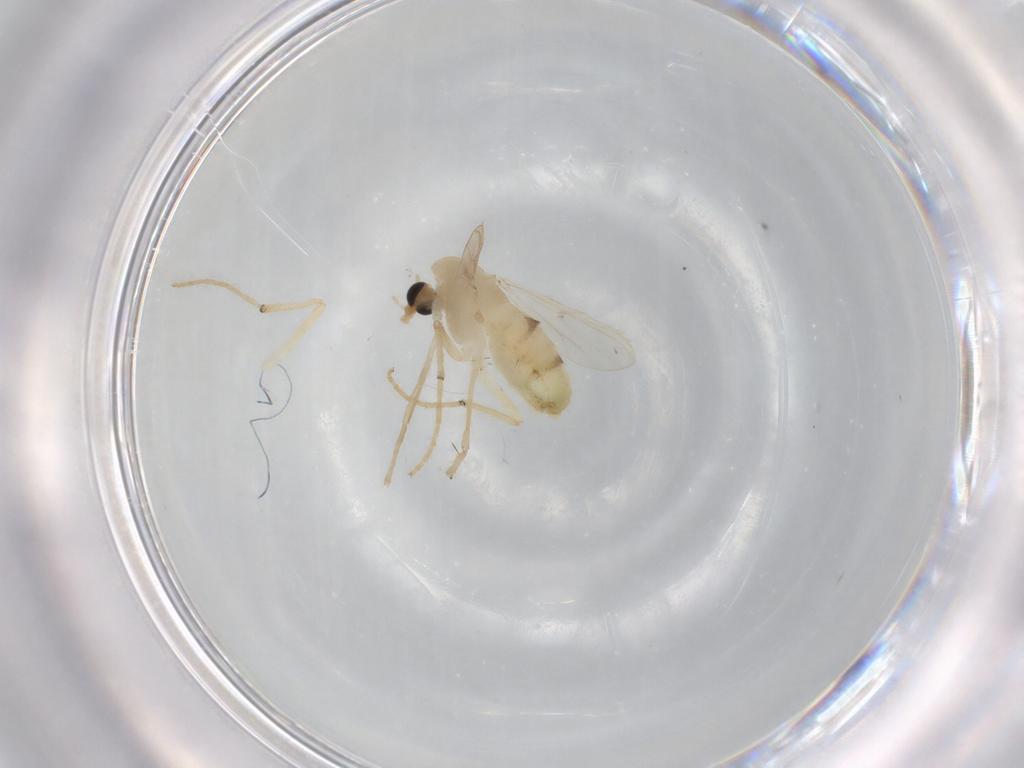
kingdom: Animalia
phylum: Arthropoda
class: Insecta
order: Diptera
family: Chironomidae
